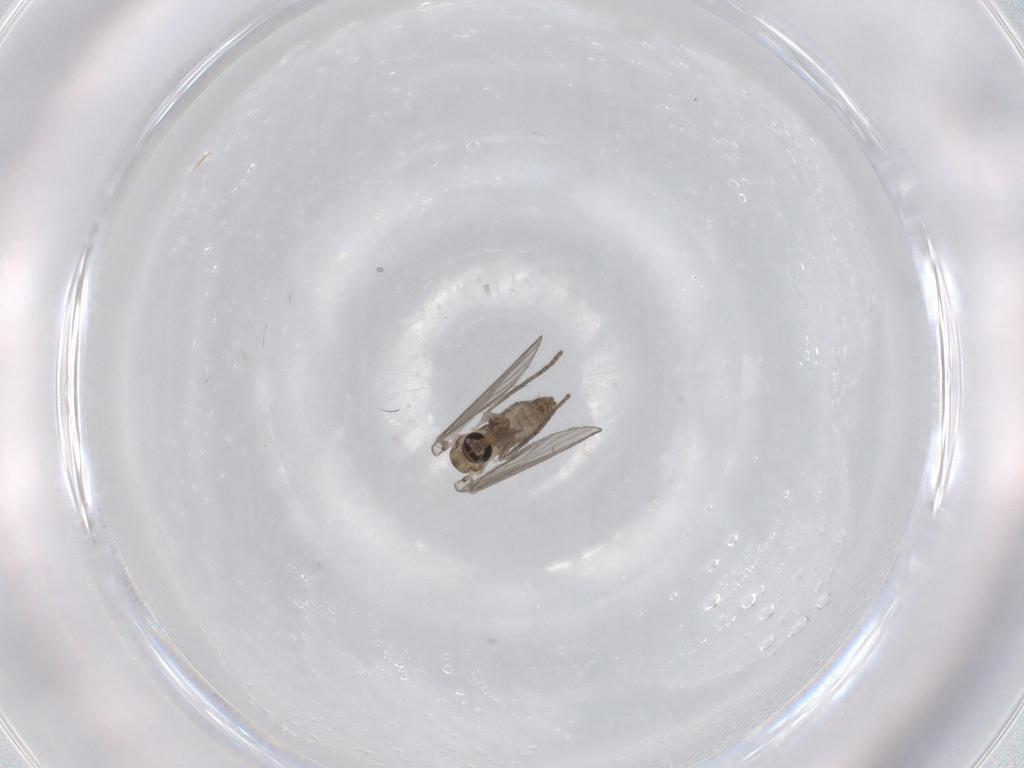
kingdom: Animalia
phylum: Arthropoda
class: Insecta
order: Diptera
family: Psychodidae
